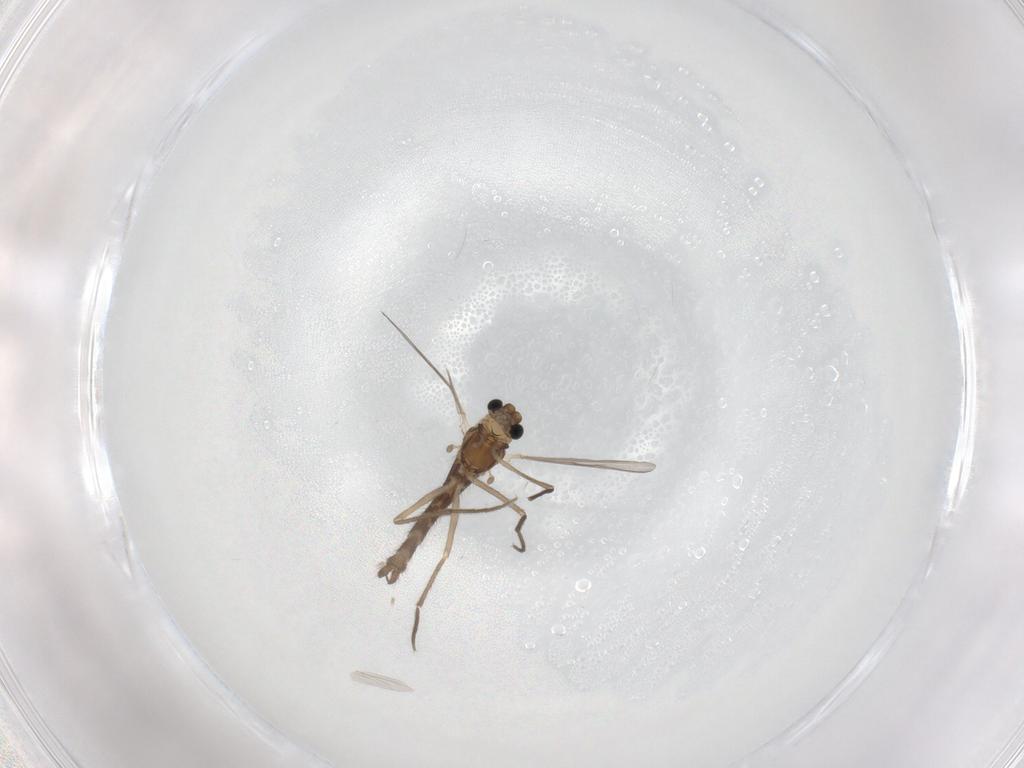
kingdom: Animalia
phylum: Arthropoda
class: Insecta
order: Diptera
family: Chironomidae
